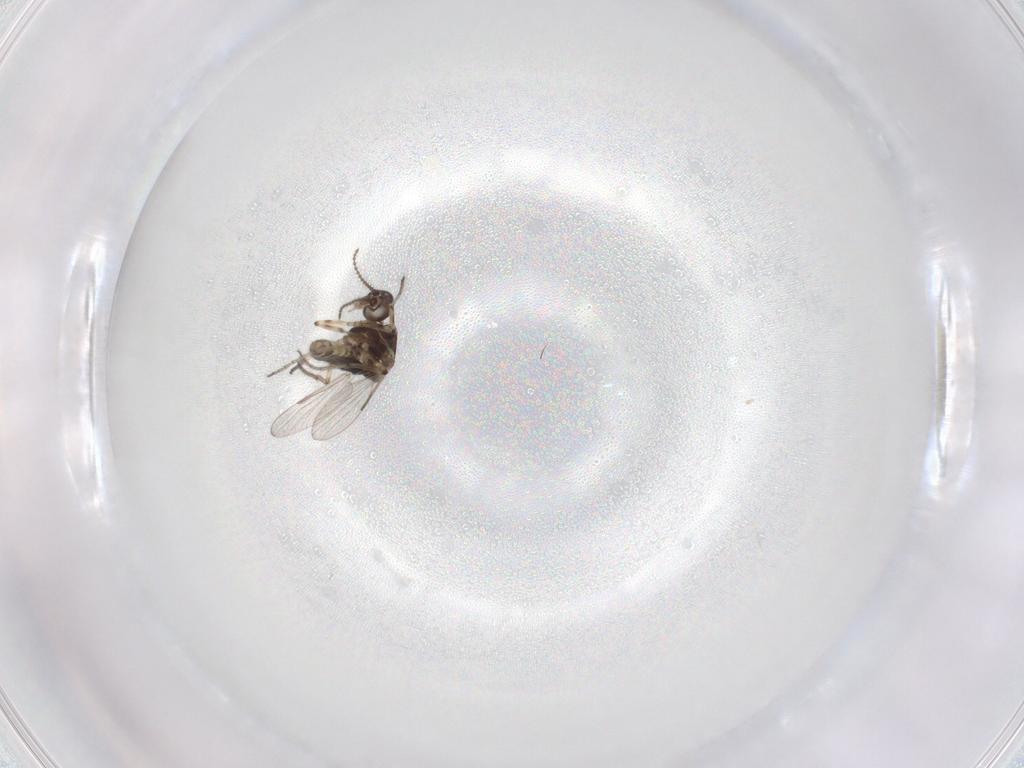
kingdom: Animalia
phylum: Arthropoda
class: Insecta
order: Diptera
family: Ceratopogonidae
